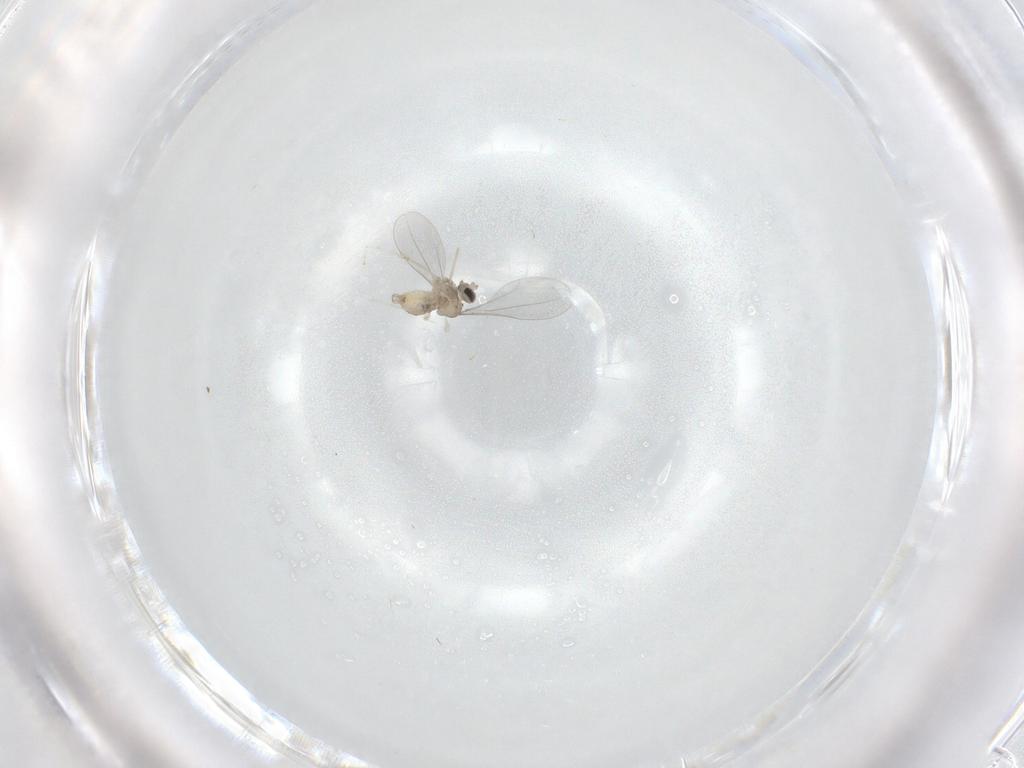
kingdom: Animalia
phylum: Arthropoda
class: Insecta
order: Diptera
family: Cecidomyiidae
